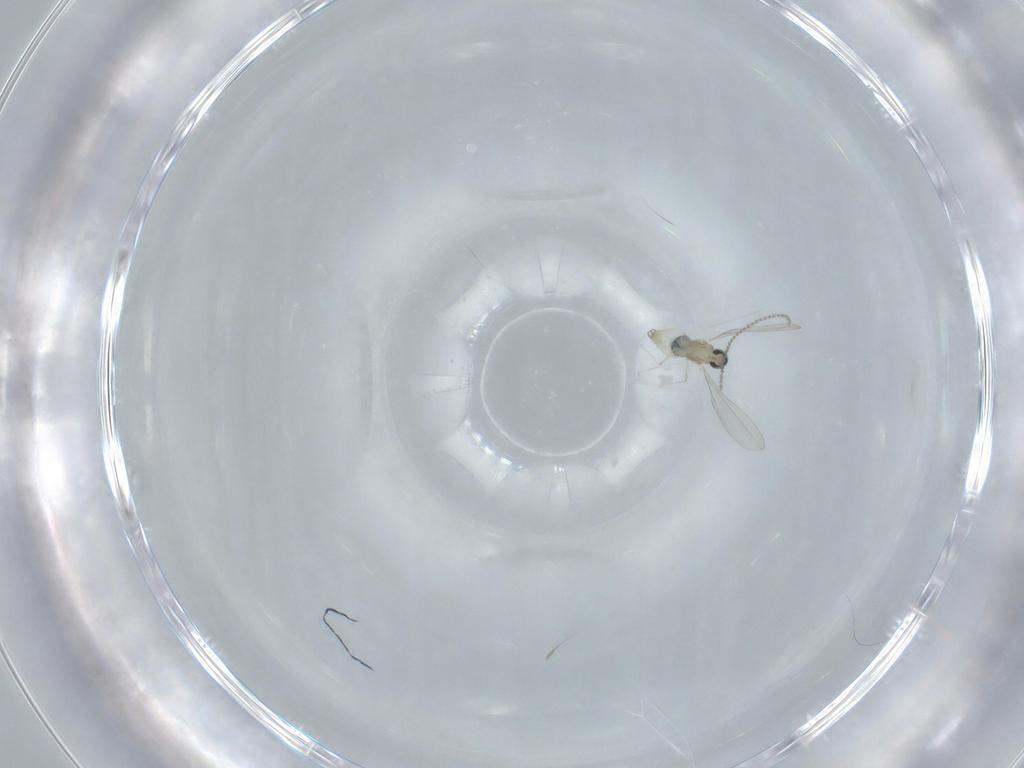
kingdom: Animalia
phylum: Arthropoda
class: Insecta
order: Diptera
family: Cecidomyiidae
